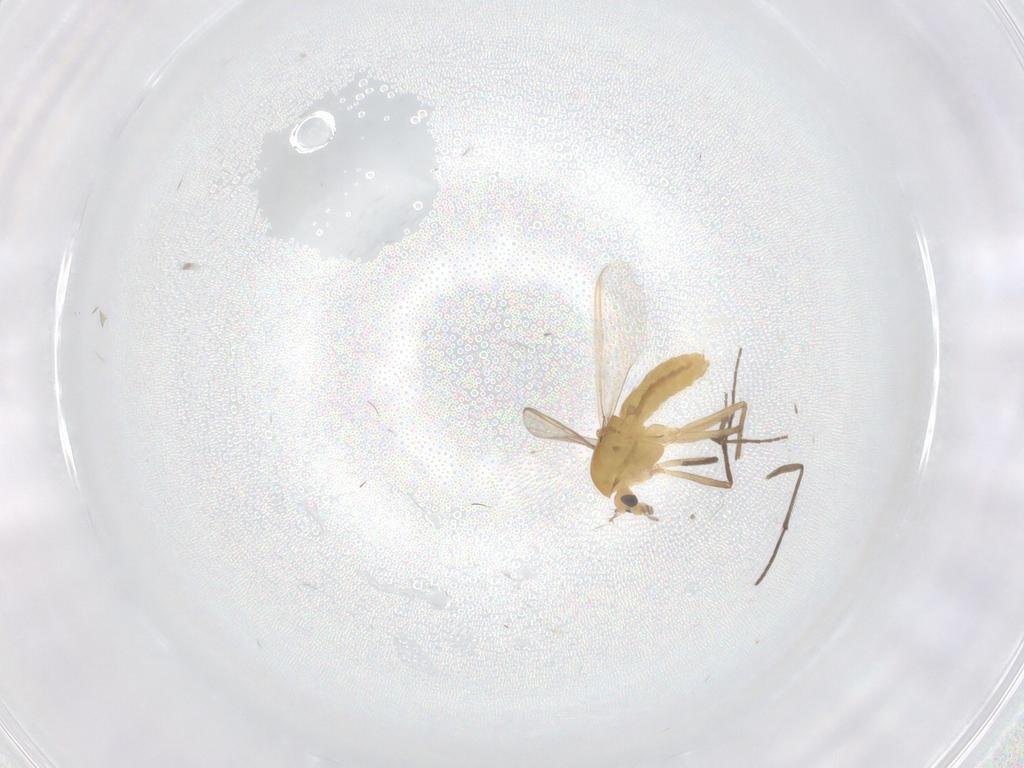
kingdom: Animalia
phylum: Arthropoda
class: Insecta
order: Diptera
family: Chironomidae
